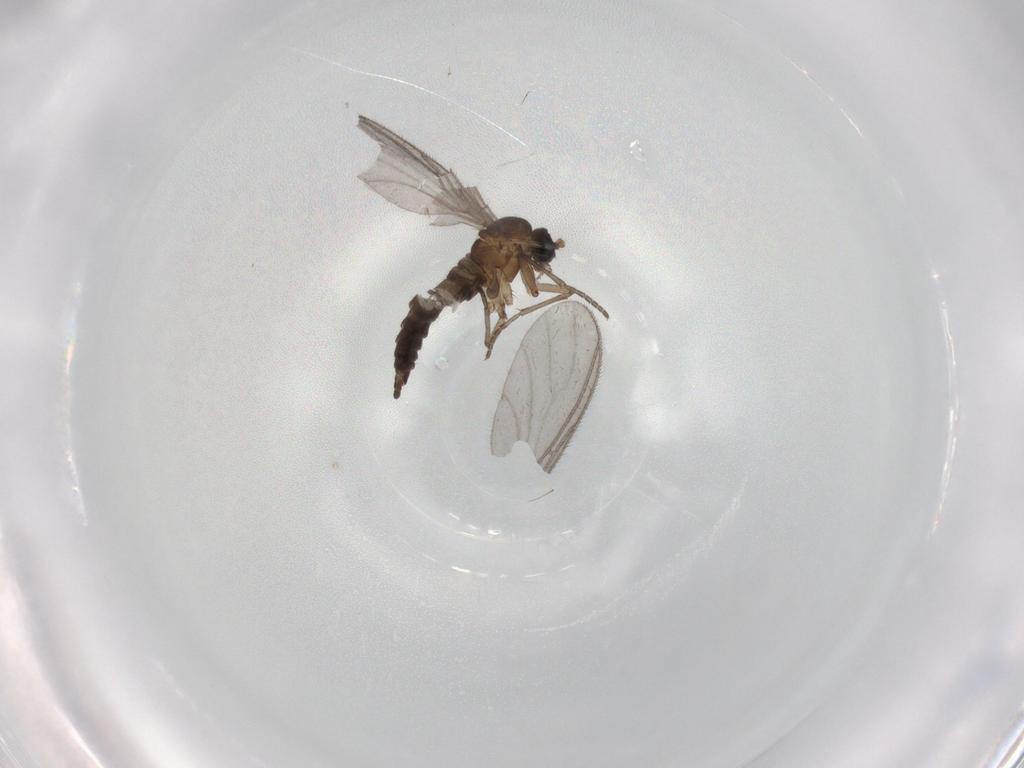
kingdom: Animalia
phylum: Arthropoda
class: Insecta
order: Diptera
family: Sciaridae
